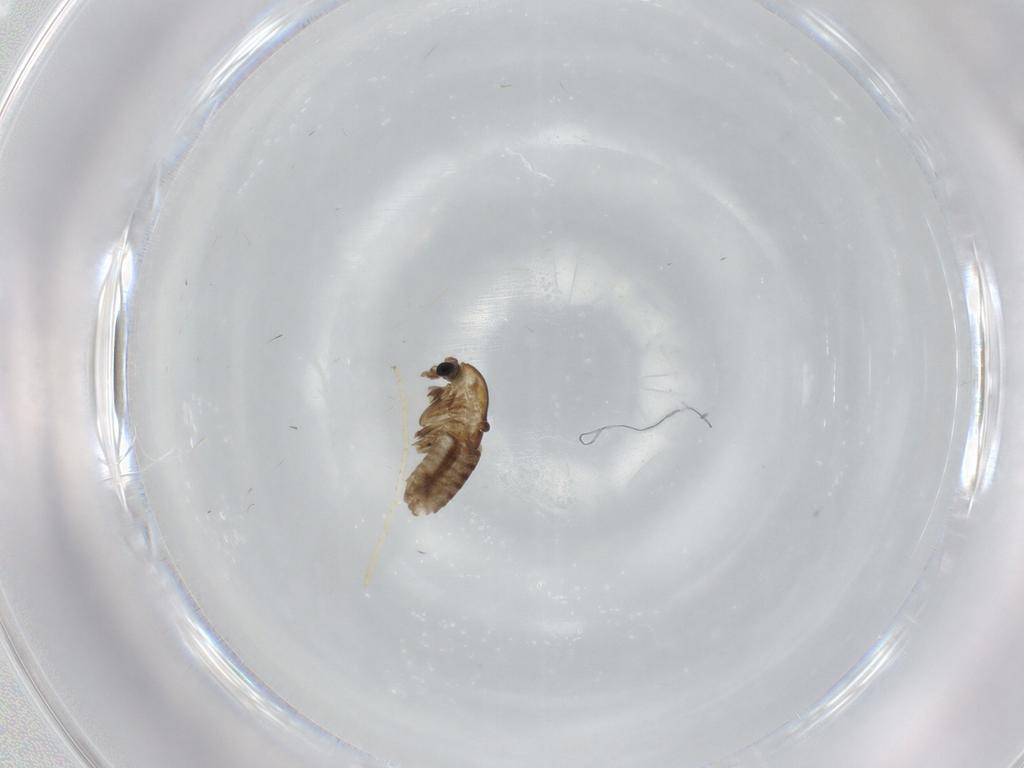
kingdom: Animalia
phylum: Arthropoda
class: Insecta
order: Diptera
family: Chironomidae
